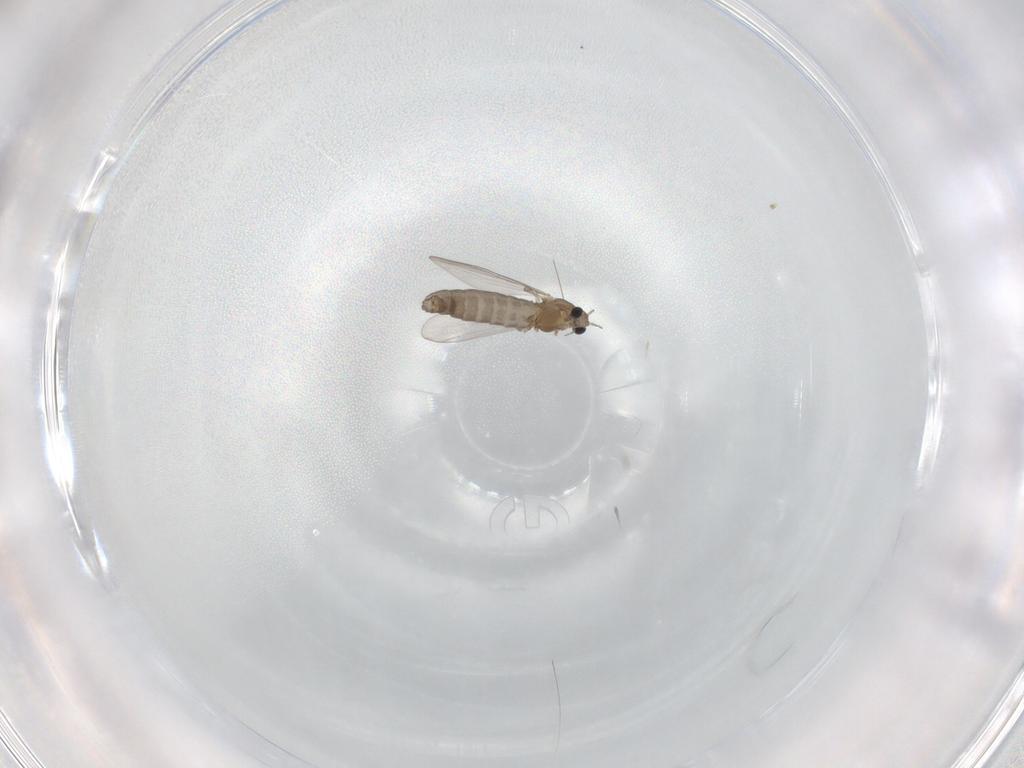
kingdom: Animalia
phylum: Arthropoda
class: Insecta
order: Diptera
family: Chironomidae
